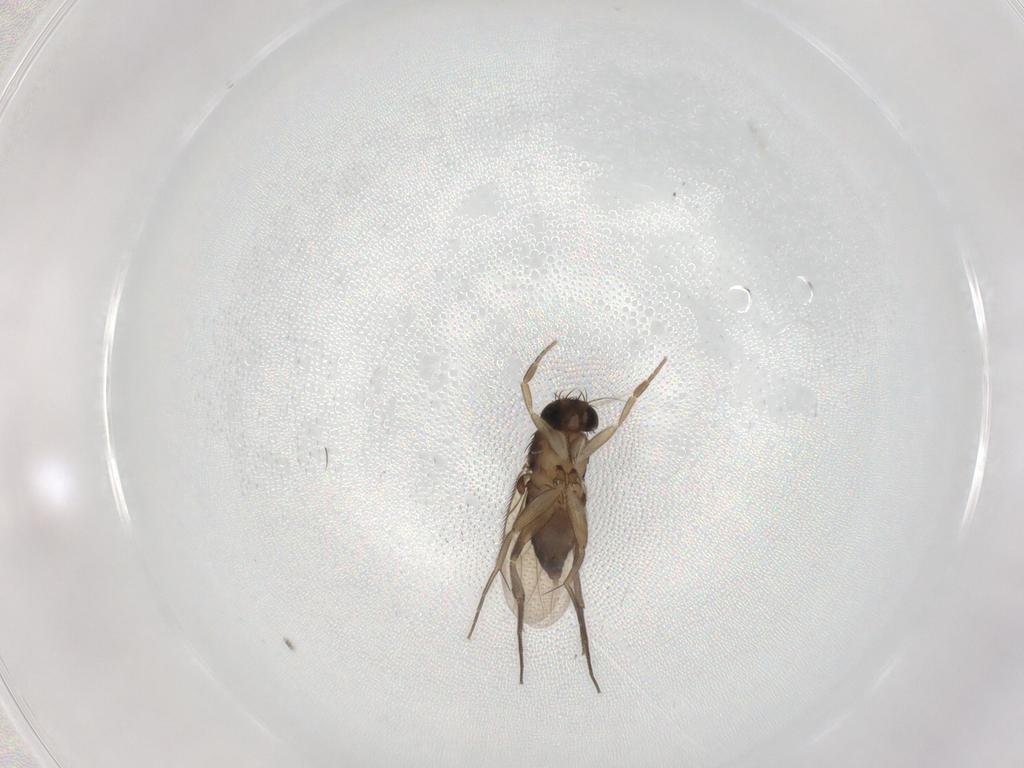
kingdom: Animalia
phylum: Arthropoda
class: Insecta
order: Diptera
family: Phoridae
